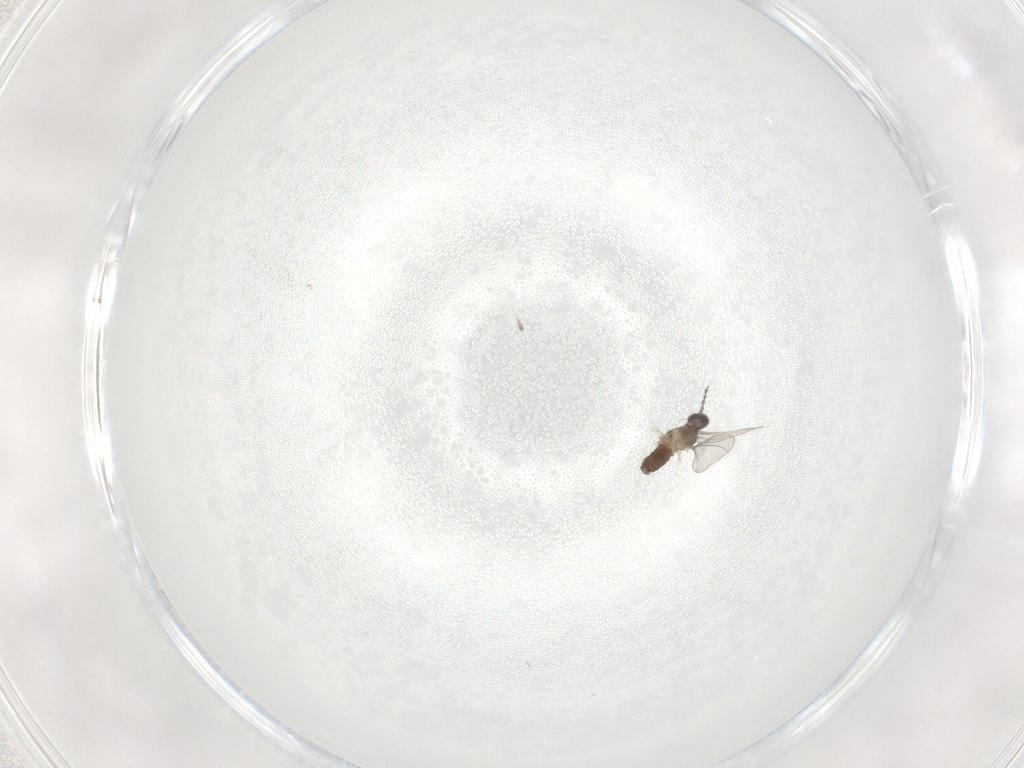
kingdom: Animalia
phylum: Arthropoda
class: Insecta
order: Diptera
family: Cecidomyiidae
